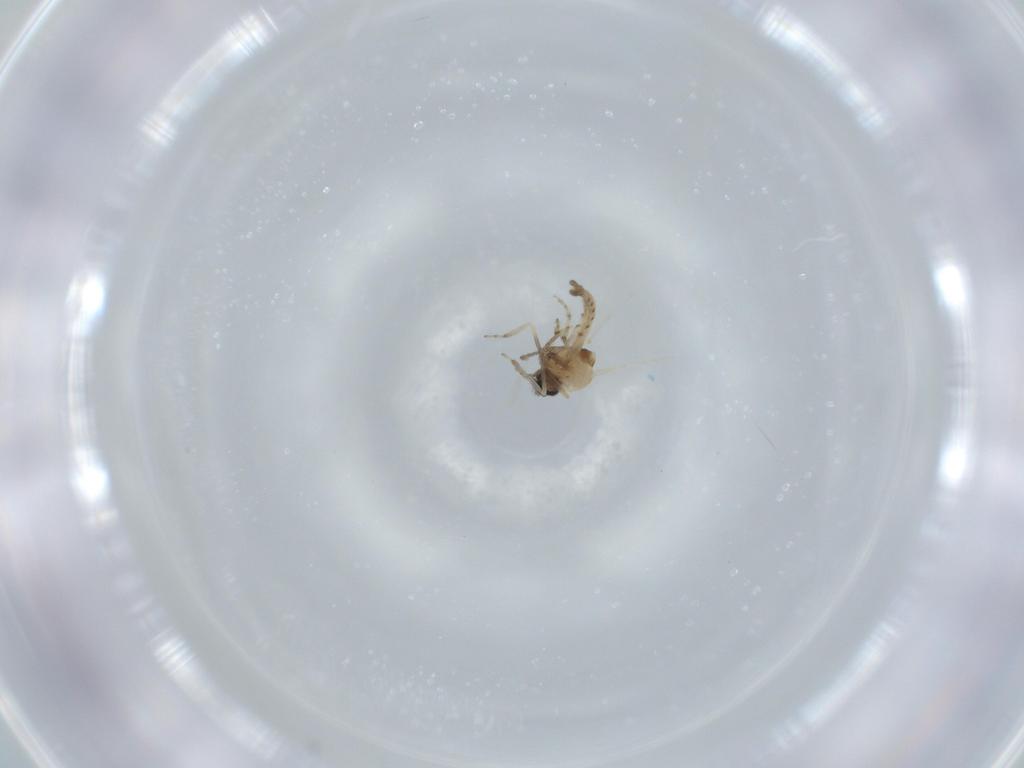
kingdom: Animalia
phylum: Arthropoda
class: Insecta
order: Diptera
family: Ceratopogonidae
